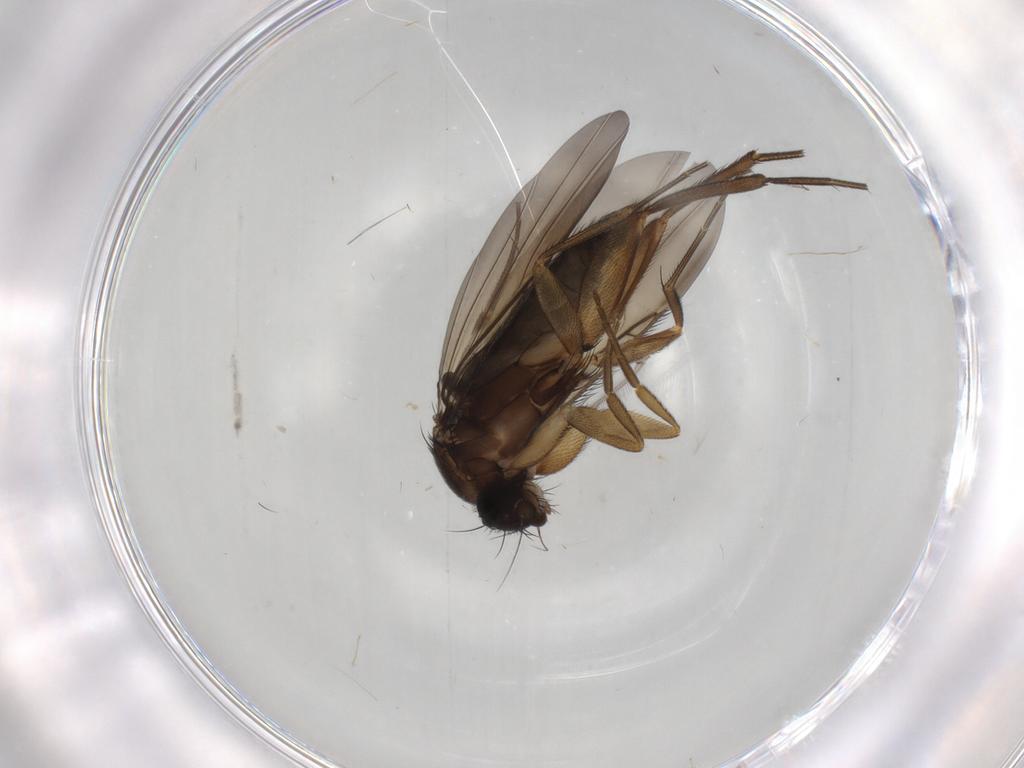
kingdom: Animalia
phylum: Arthropoda
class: Insecta
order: Diptera
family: Phoridae
